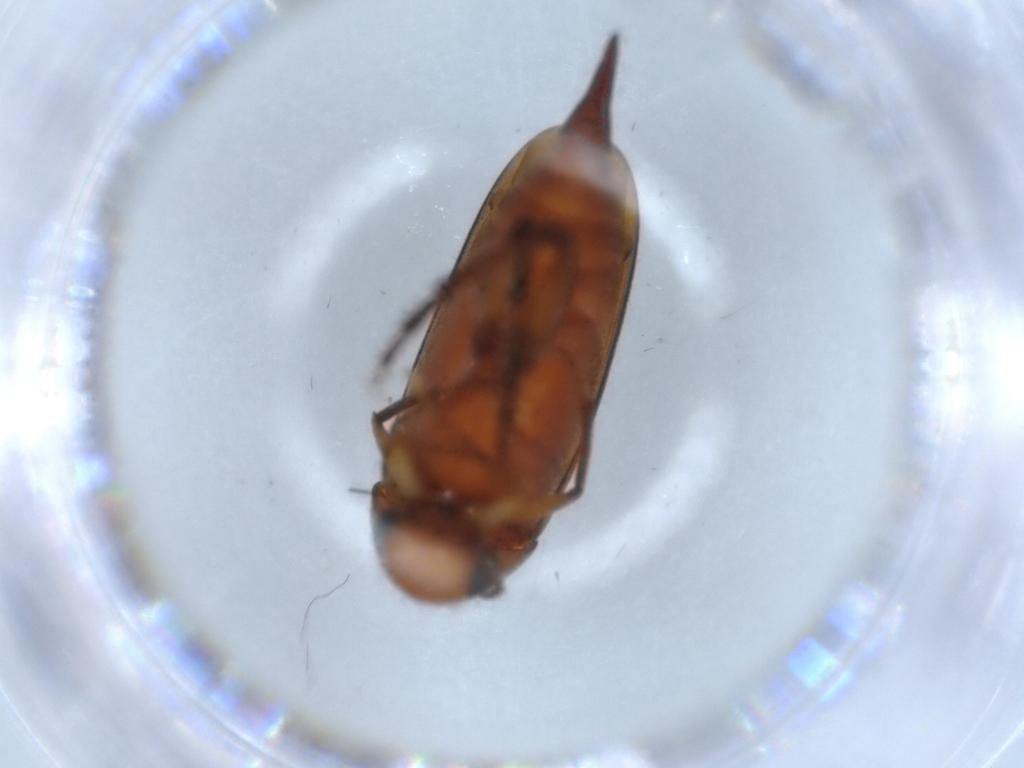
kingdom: Animalia
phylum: Arthropoda
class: Insecta
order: Coleoptera
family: Mordellidae
